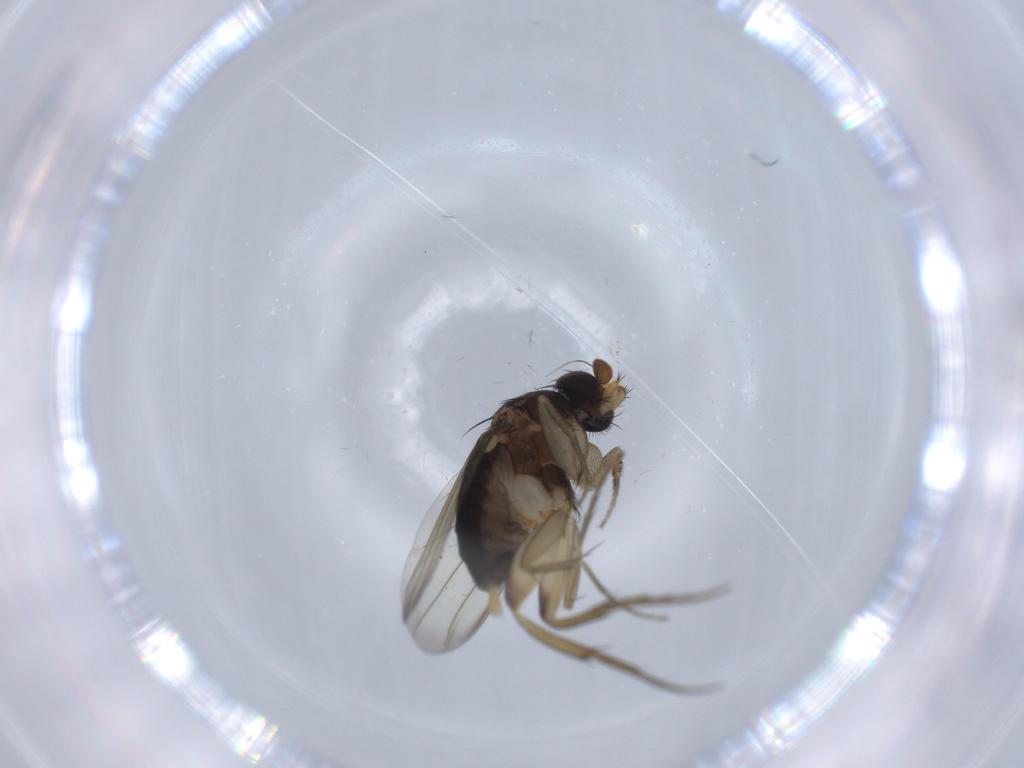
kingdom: Animalia
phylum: Arthropoda
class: Insecta
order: Diptera
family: Phoridae
